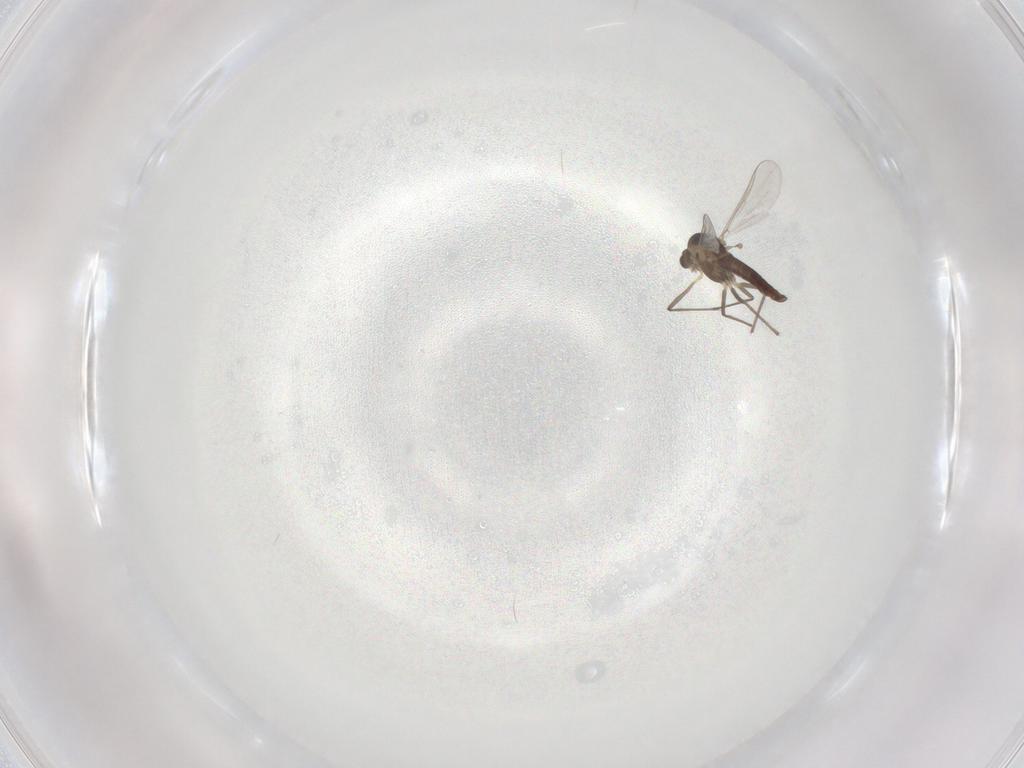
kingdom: Animalia
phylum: Arthropoda
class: Insecta
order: Diptera
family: Chironomidae
